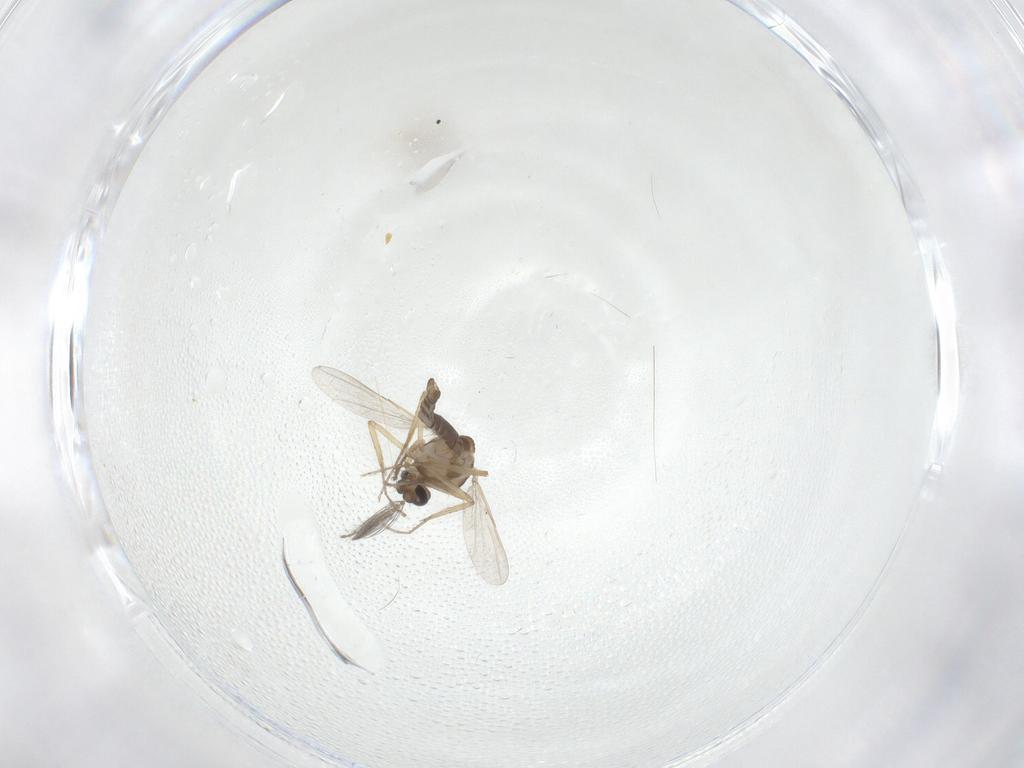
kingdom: Animalia
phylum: Arthropoda
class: Insecta
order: Diptera
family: Ceratopogonidae
